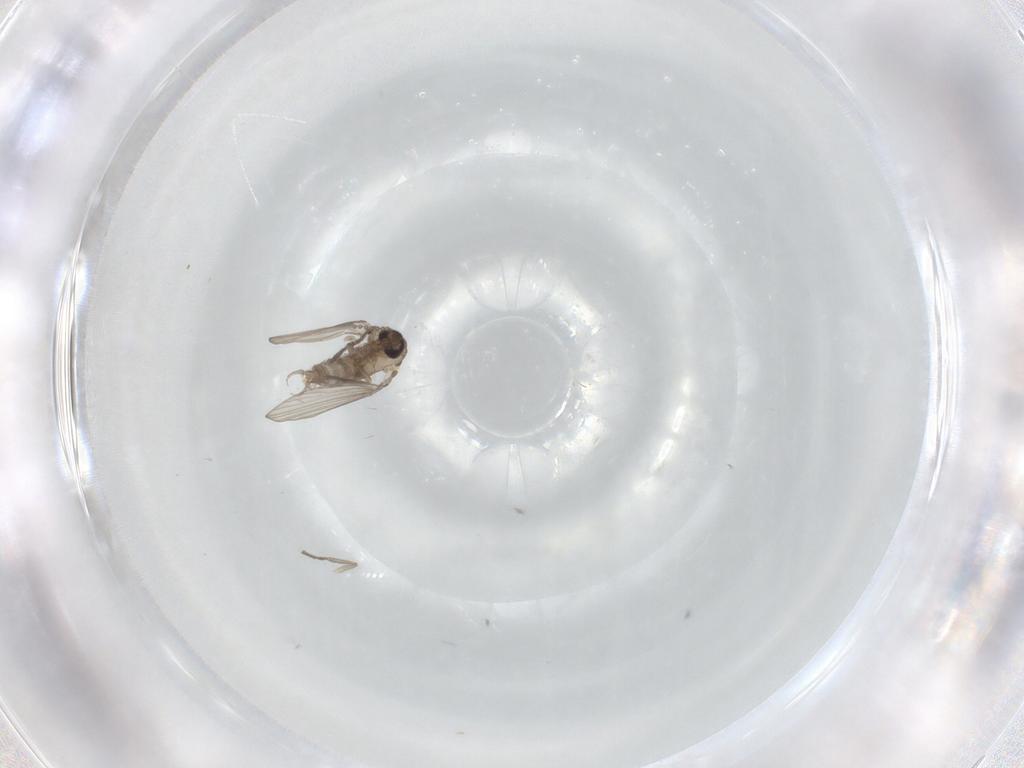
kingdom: Animalia
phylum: Arthropoda
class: Insecta
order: Diptera
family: Psychodidae
